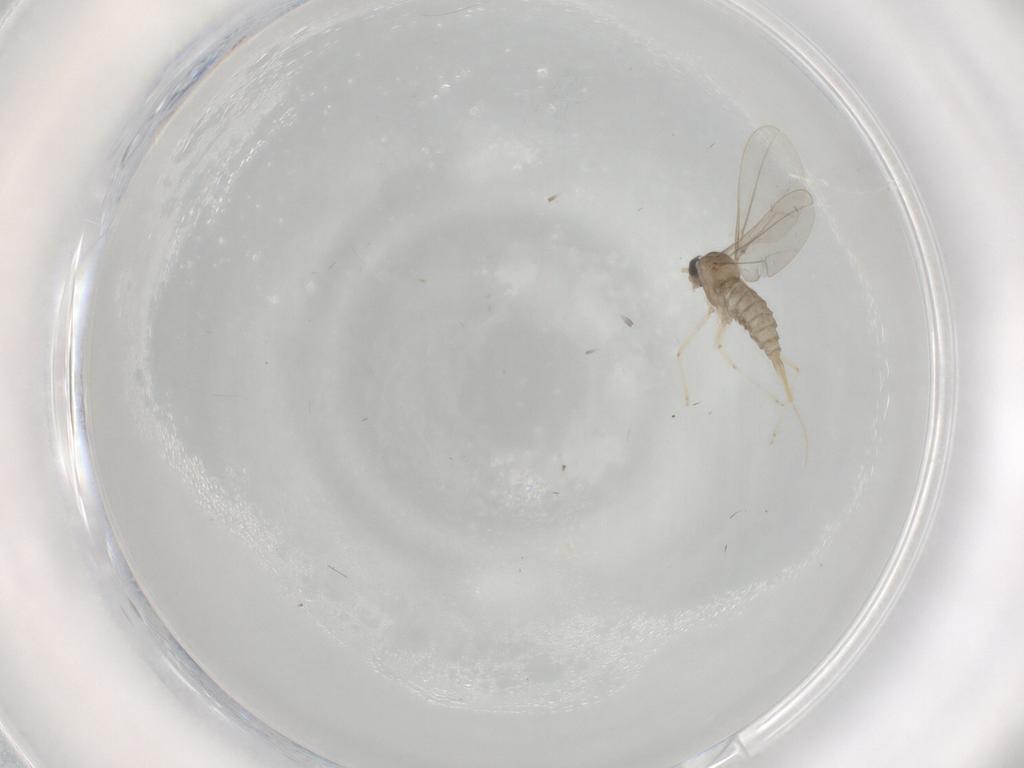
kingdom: Animalia
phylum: Arthropoda
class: Insecta
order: Diptera
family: Cecidomyiidae
